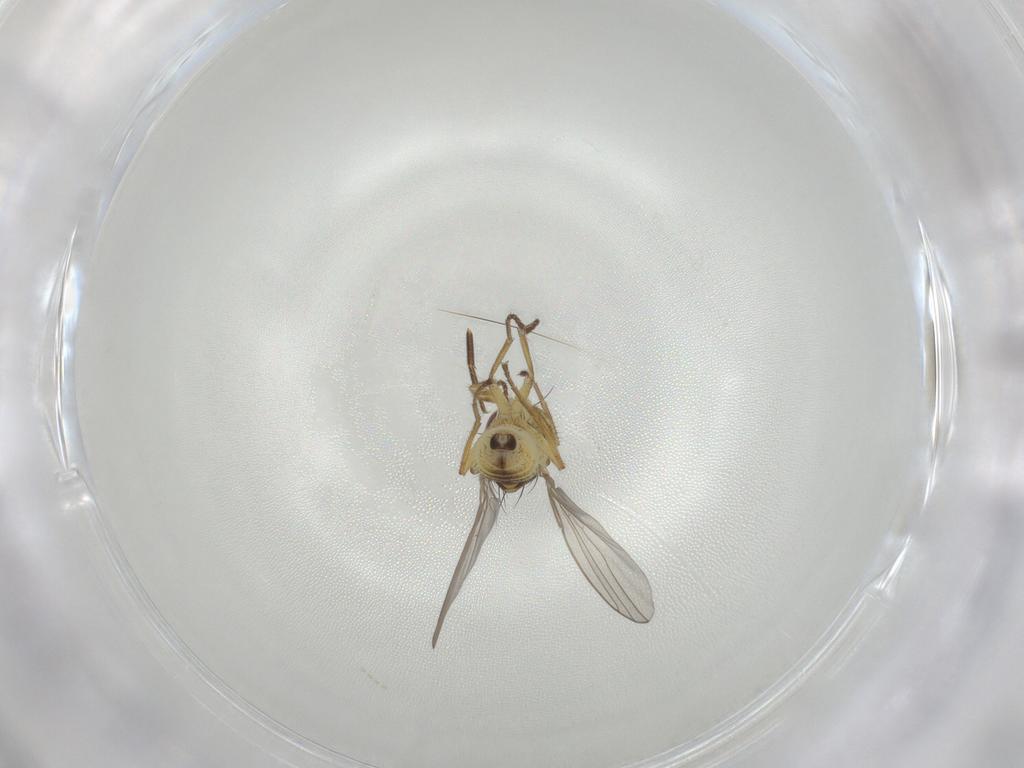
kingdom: Animalia
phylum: Arthropoda
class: Insecta
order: Diptera
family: Agromyzidae
